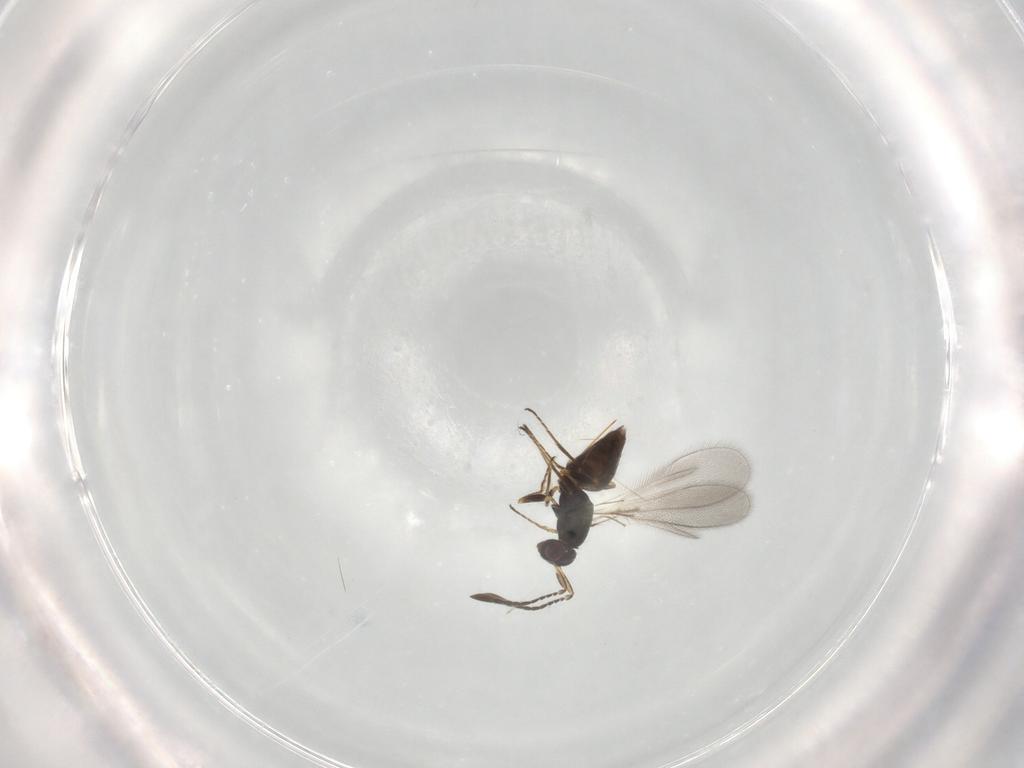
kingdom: Animalia
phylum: Arthropoda
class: Insecta
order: Hymenoptera
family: Mymaridae
